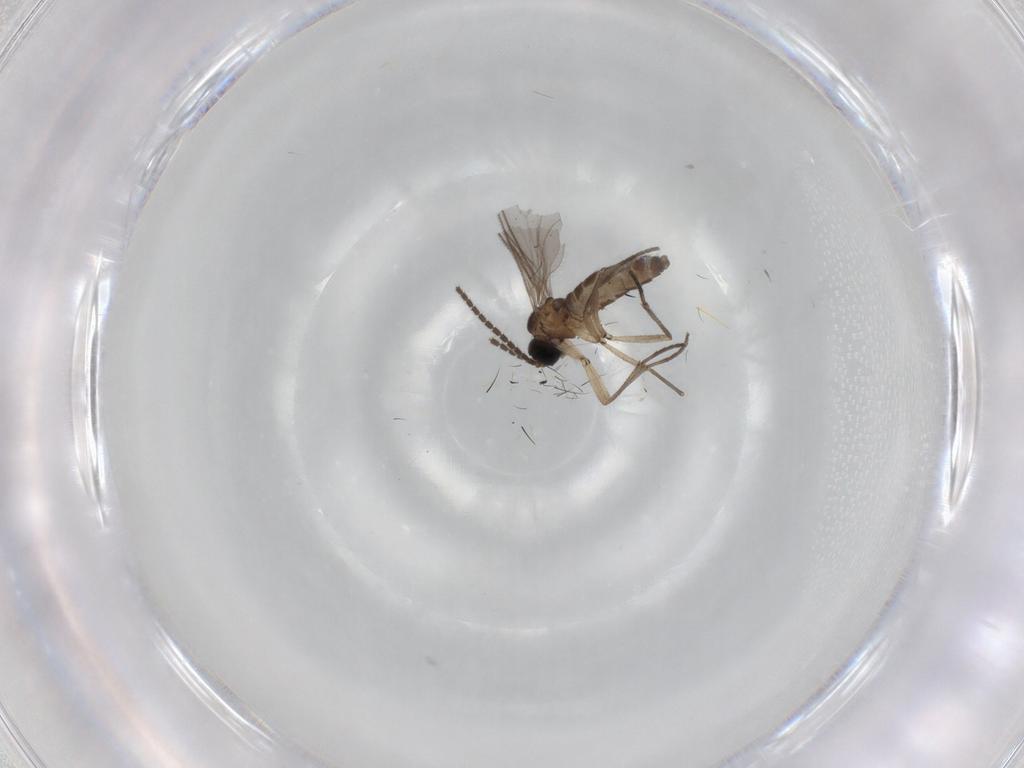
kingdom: Animalia
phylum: Arthropoda
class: Insecta
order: Diptera
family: Sciaridae
